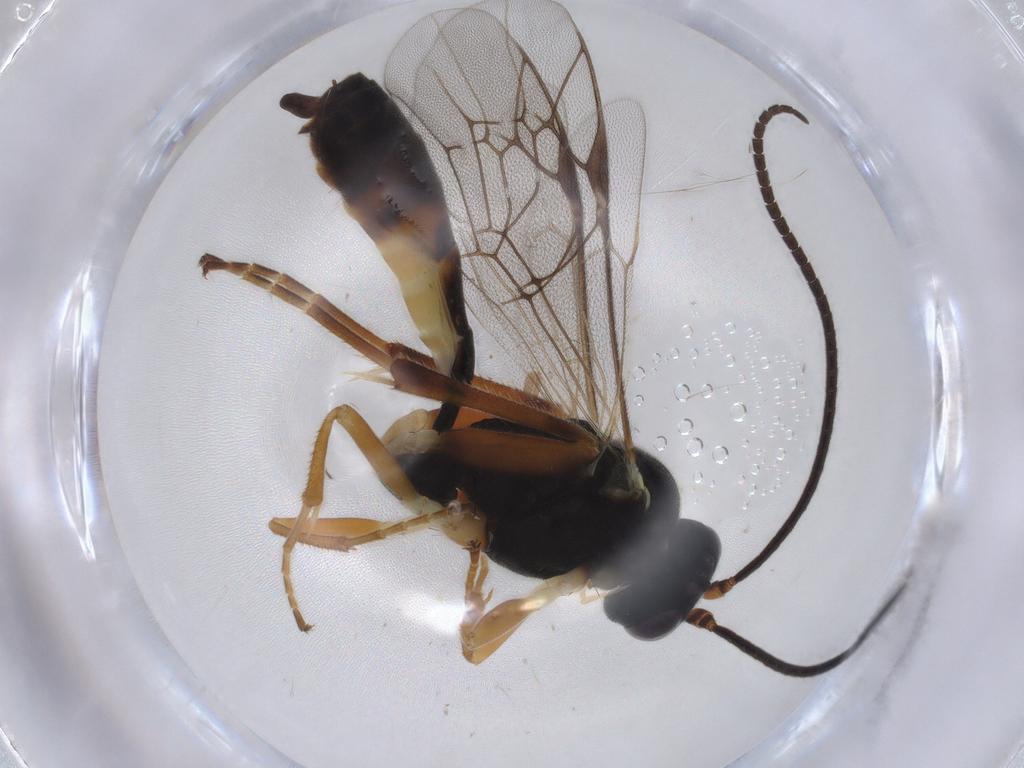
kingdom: Animalia
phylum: Arthropoda
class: Insecta
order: Hymenoptera
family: Ichneumonidae
